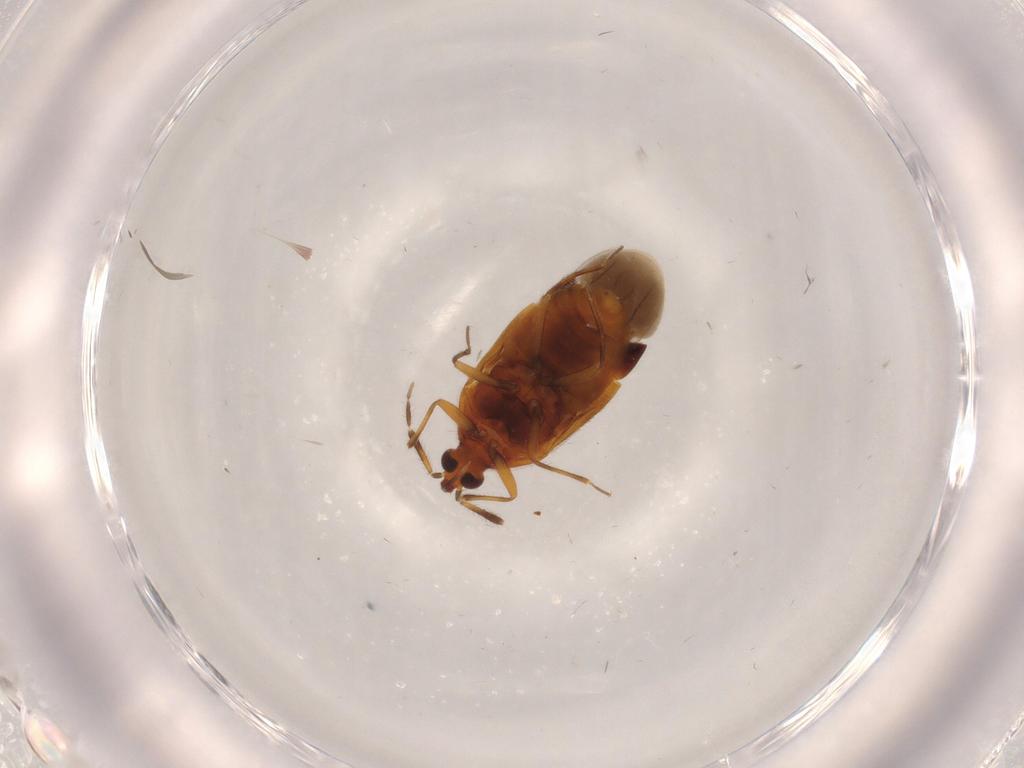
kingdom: Animalia
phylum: Arthropoda
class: Insecta
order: Hemiptera
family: Anthocoridae
